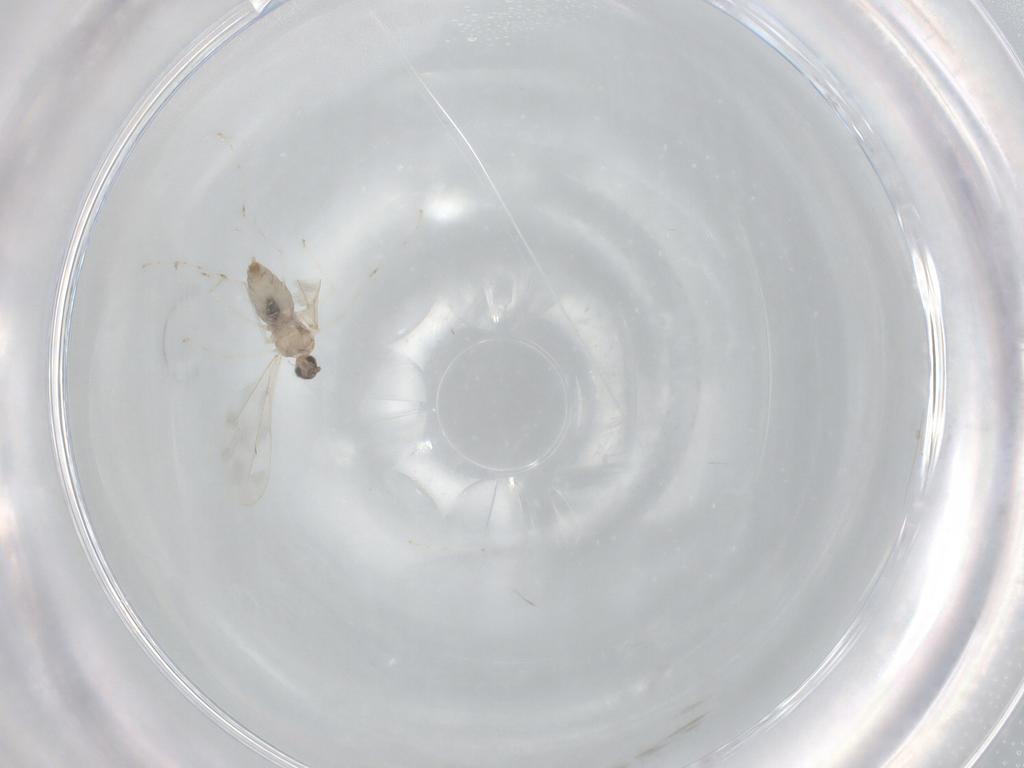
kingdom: Animalia
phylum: Arthropoda
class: Insecta
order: Diptera
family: Cecidomyiidae
